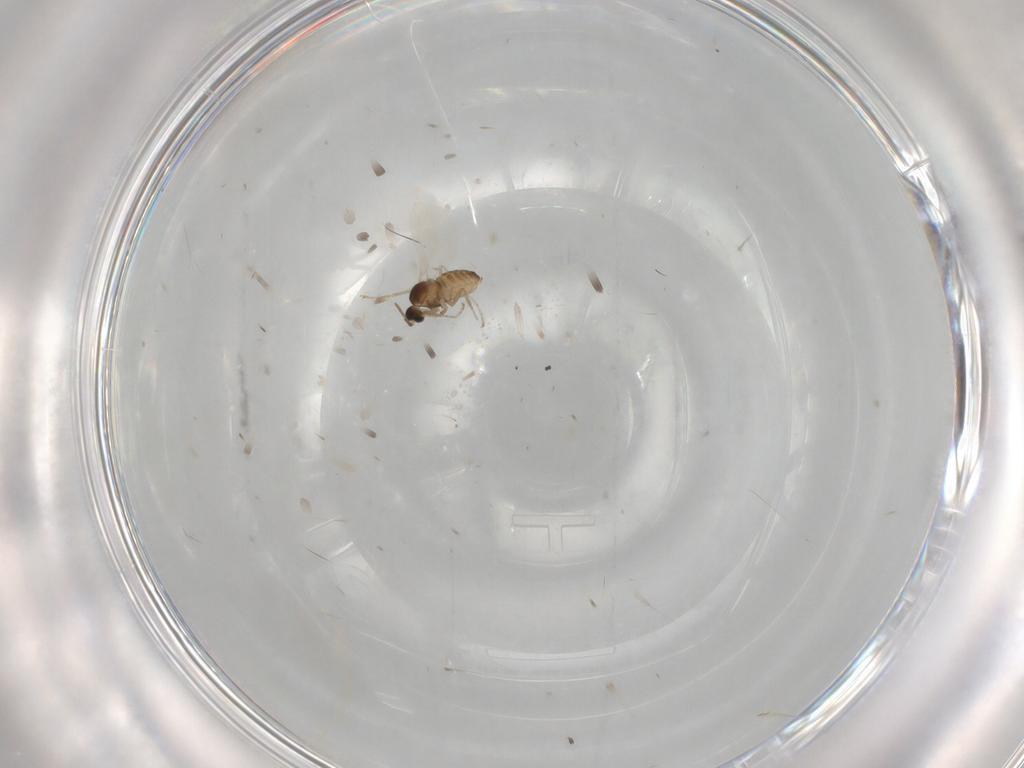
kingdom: Animalia
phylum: Arthropoda
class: Insecta
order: Diptera
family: Cecidomyiidae
